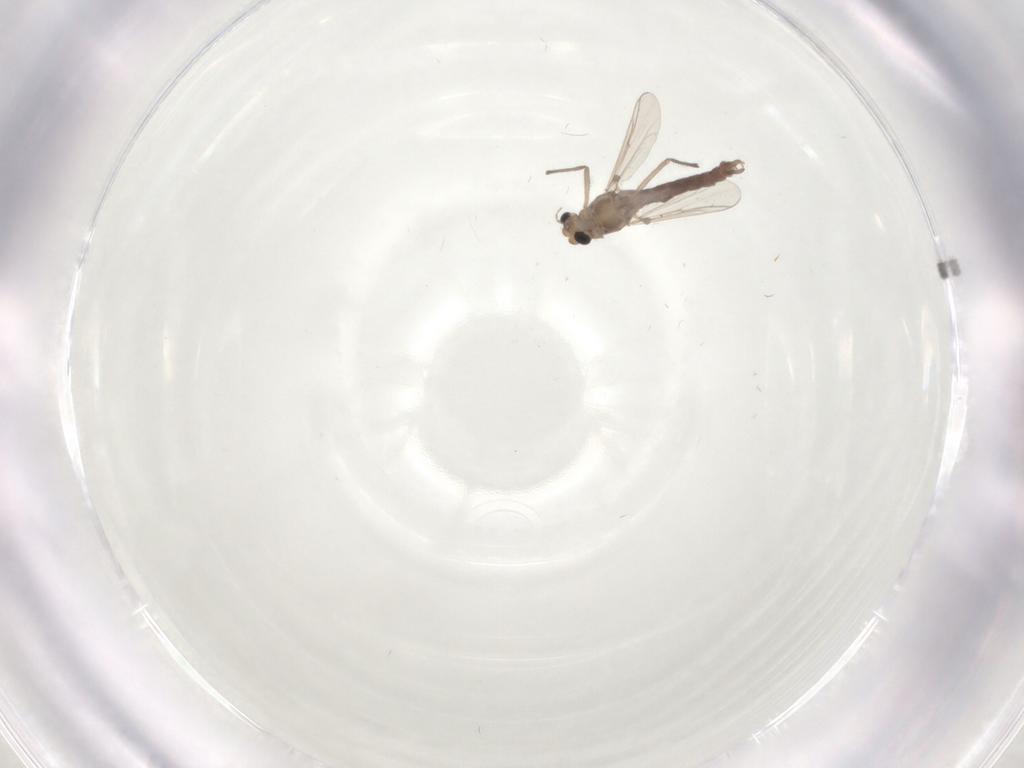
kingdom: Animalia
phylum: Arthropoda
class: Insecta
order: Diptera
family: Chironomidae
